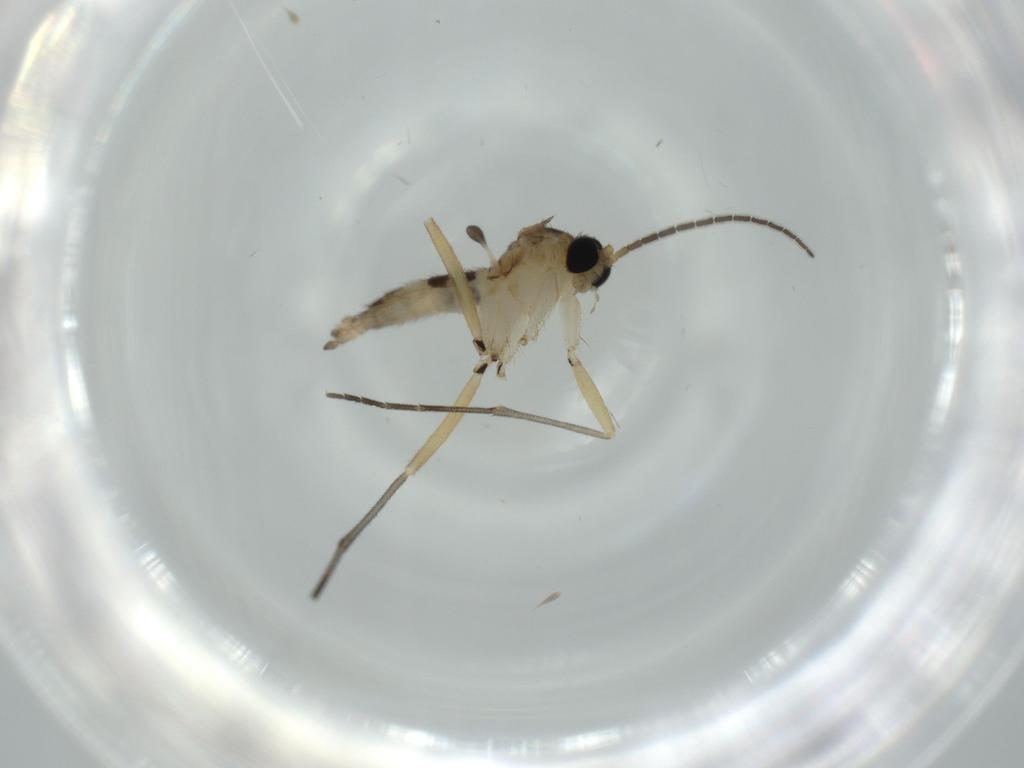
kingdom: Animalia
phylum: Arthropoda
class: Insecta
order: Diptera
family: Sciaridae
